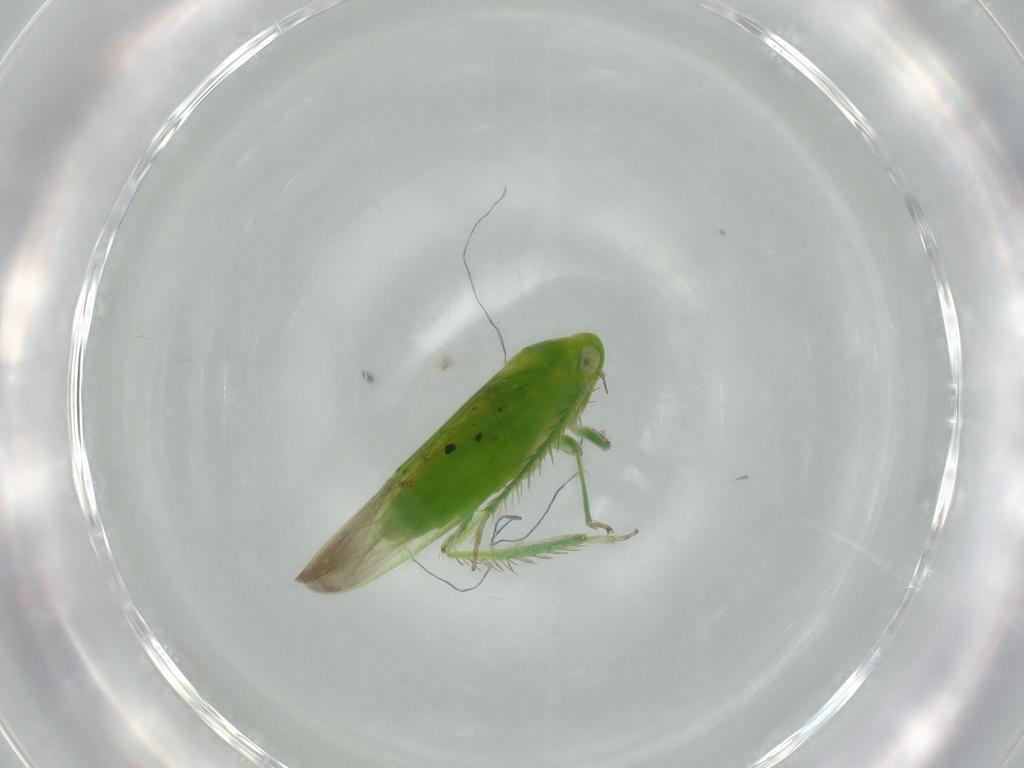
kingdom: Animalia
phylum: Arthropoda
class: Insecta
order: Hemiptera
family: Cicadellidae
